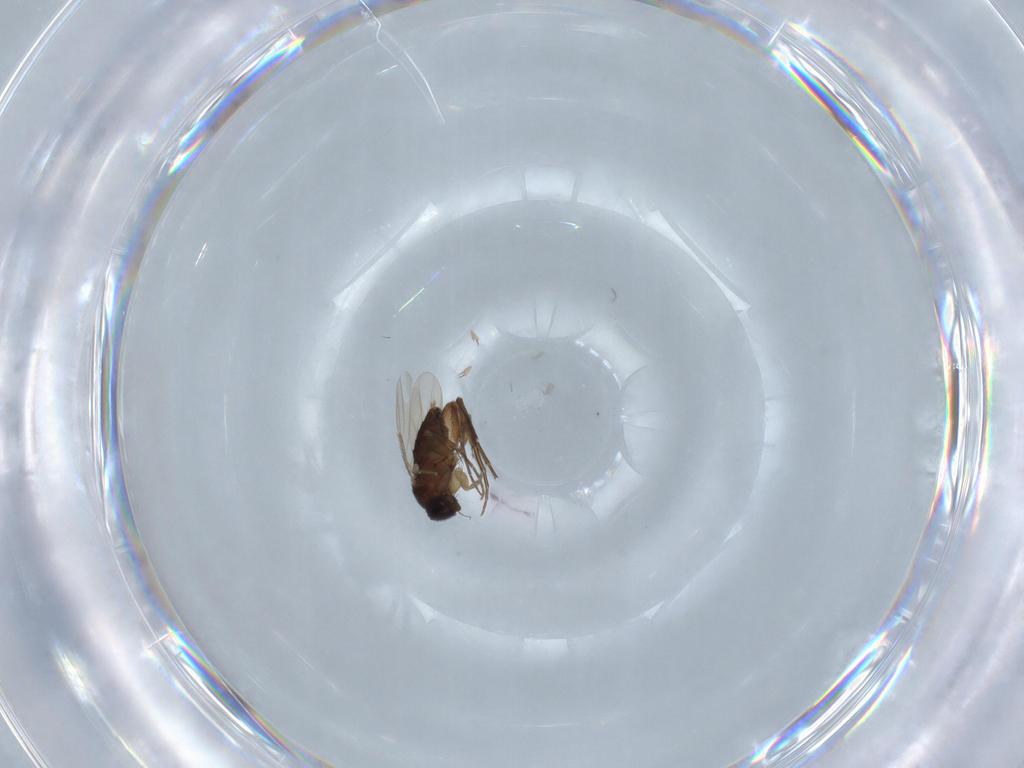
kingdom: Animalia
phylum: Arthropoda
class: Insecta
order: Diptera
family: Phoridae
